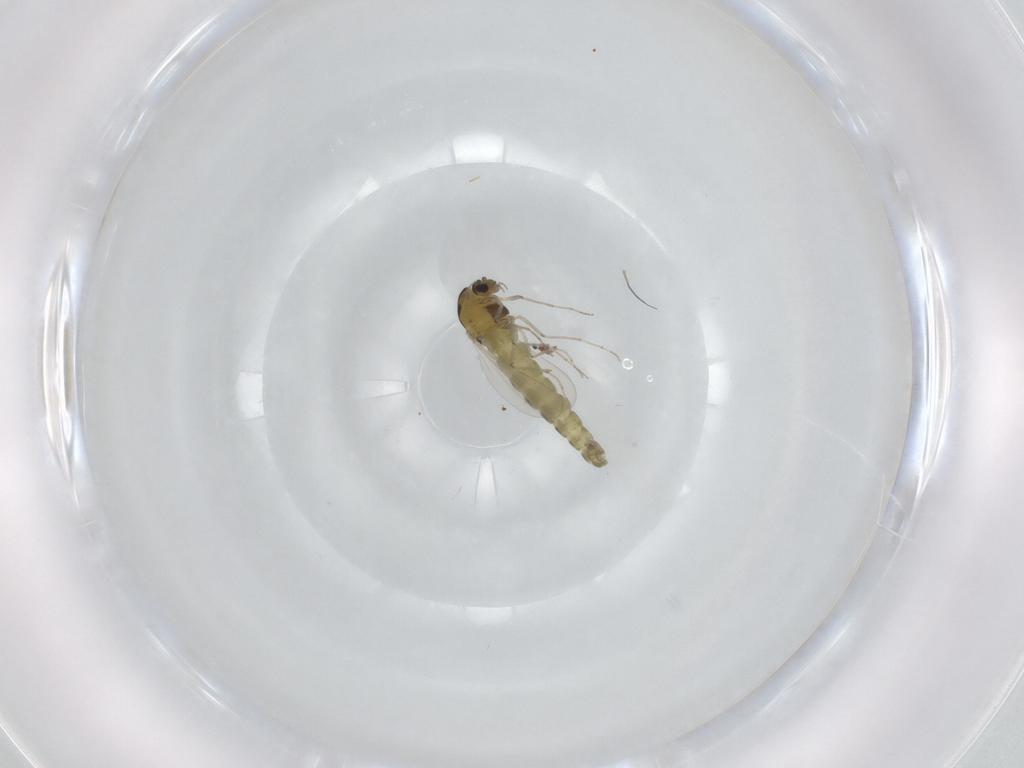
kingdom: Animalia
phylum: Arthropoda
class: Insecta
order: Diptera
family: Chironomidae
